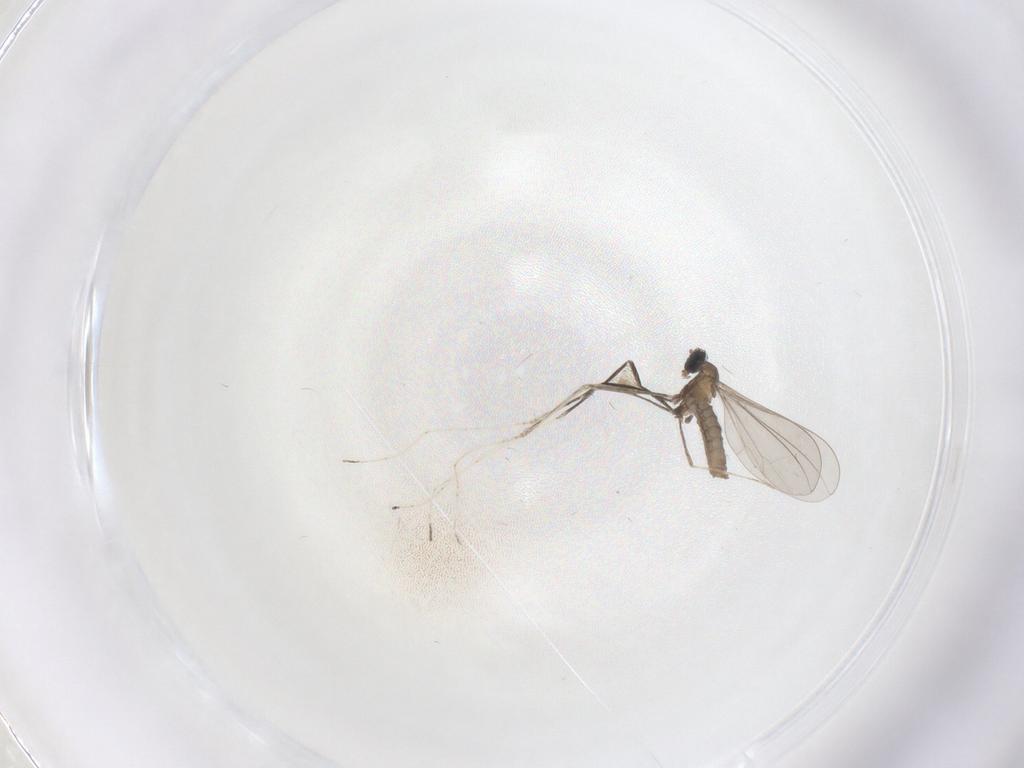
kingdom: Animalia
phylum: Arthropoda
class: Insecta
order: Diptera
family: Cecidomyiidae
